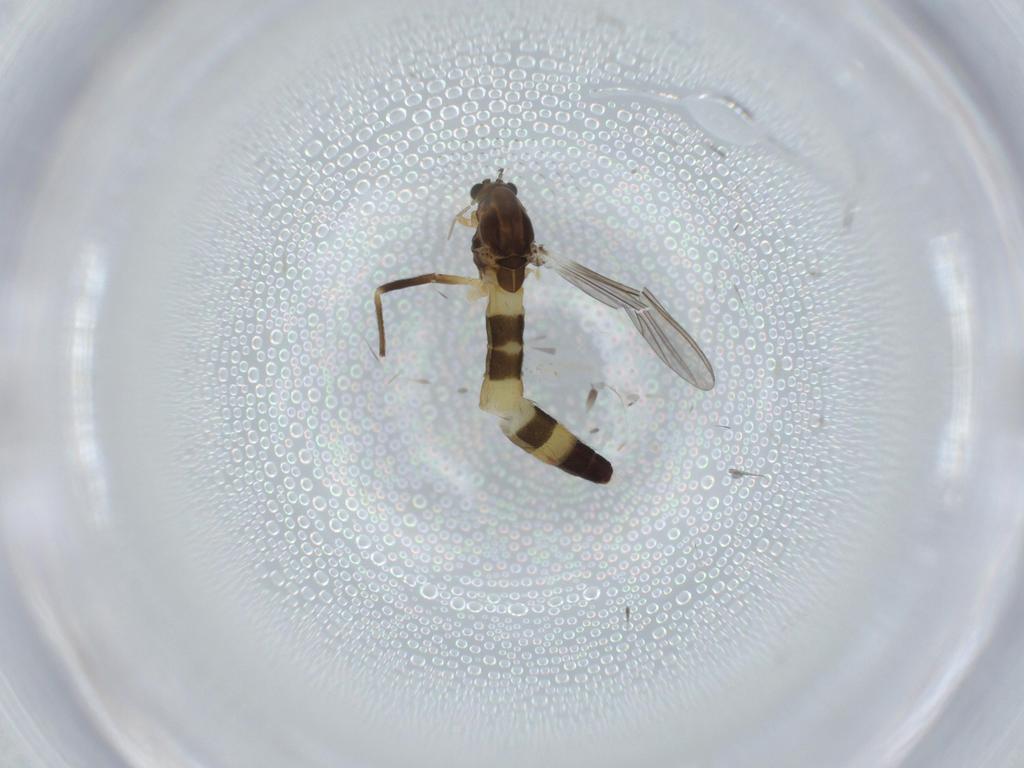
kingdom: Animalia
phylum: Arthropoda
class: Insecta
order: Diptera
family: Chironomidae
